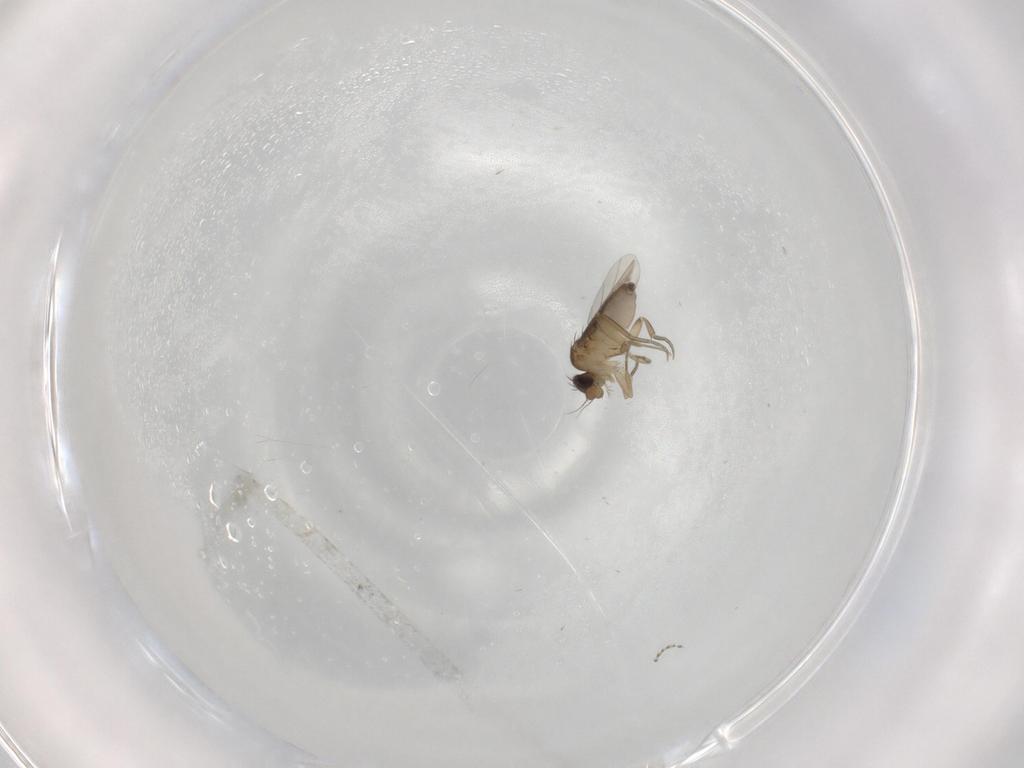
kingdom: Animalia
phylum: Arthropoda
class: Insecta
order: Diptera
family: Phoridae
